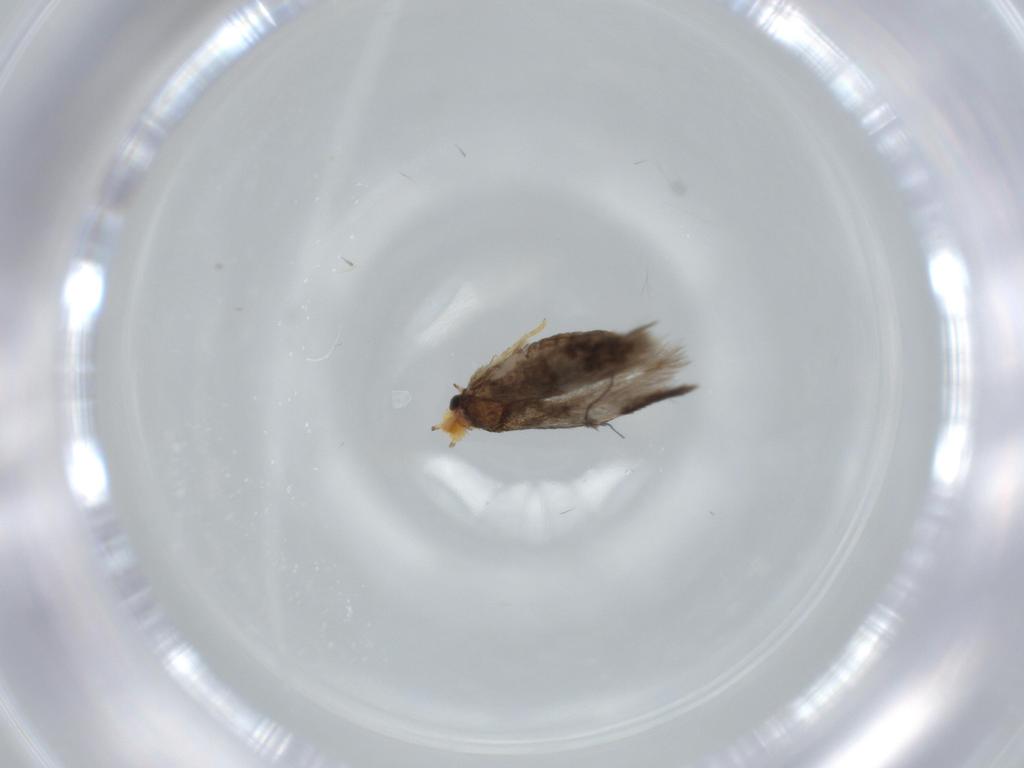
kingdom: Animalia
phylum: Arthropoda
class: Insecta
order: Lepidoptera
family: Nepticulidae
